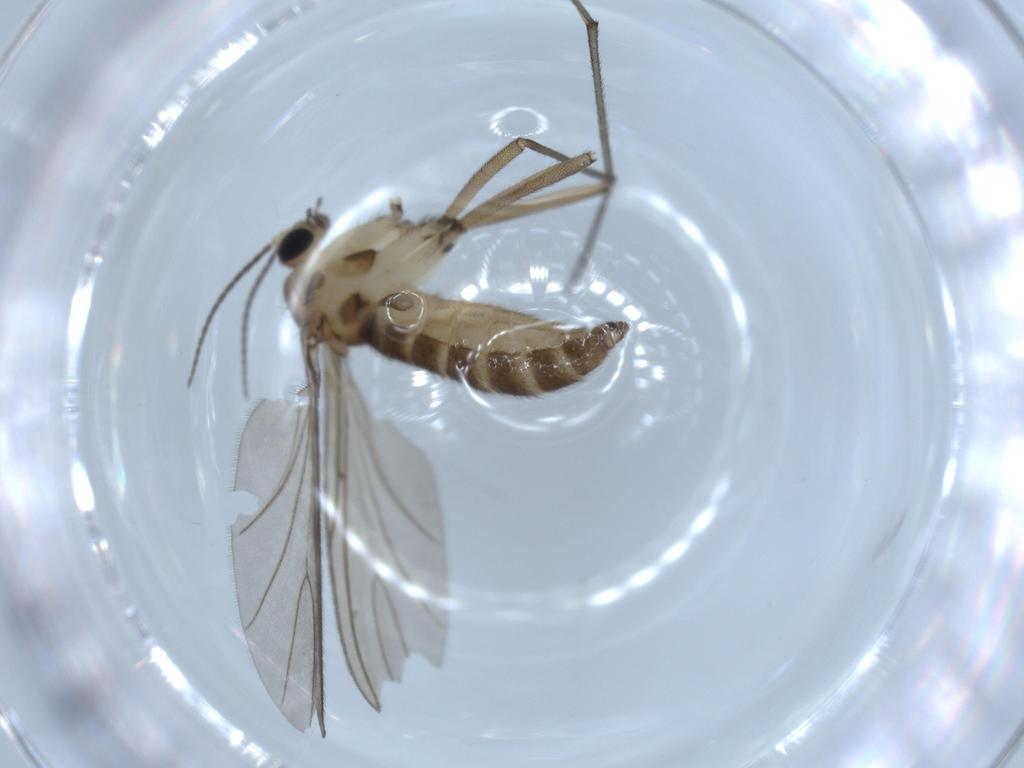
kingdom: Animalia
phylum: Arthropoda
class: Insecta
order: Diptera
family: Sciaridae
